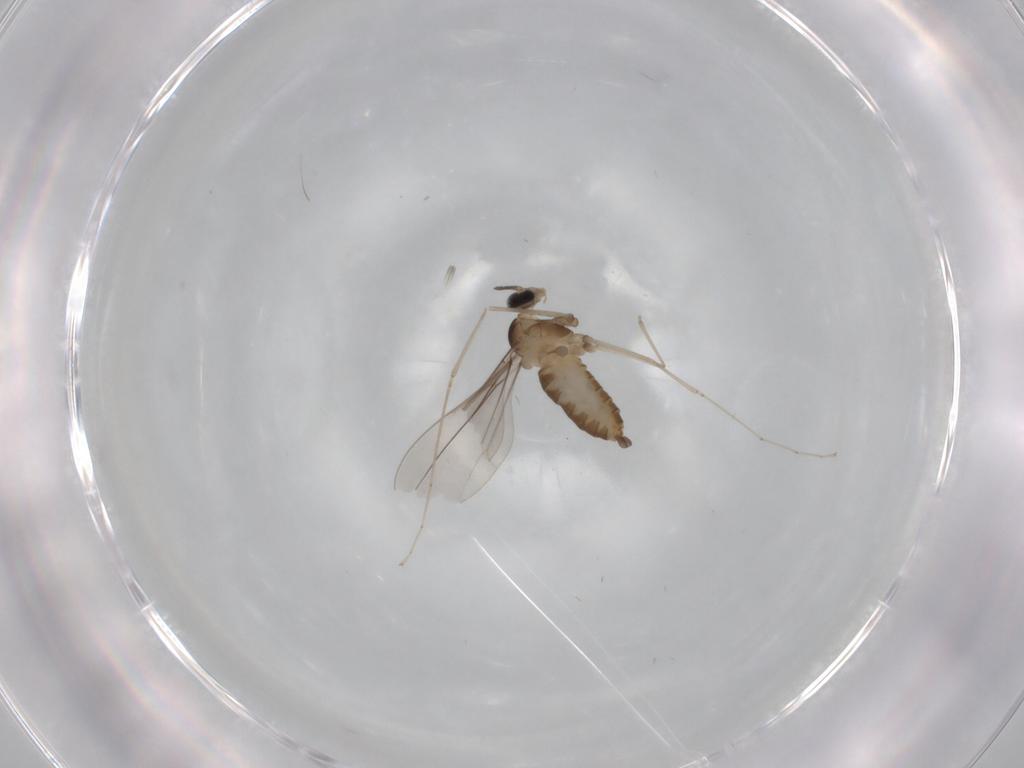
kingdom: Animalia
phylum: Arthropoda
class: Insecta
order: Diptera
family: Cecidomyiidae
